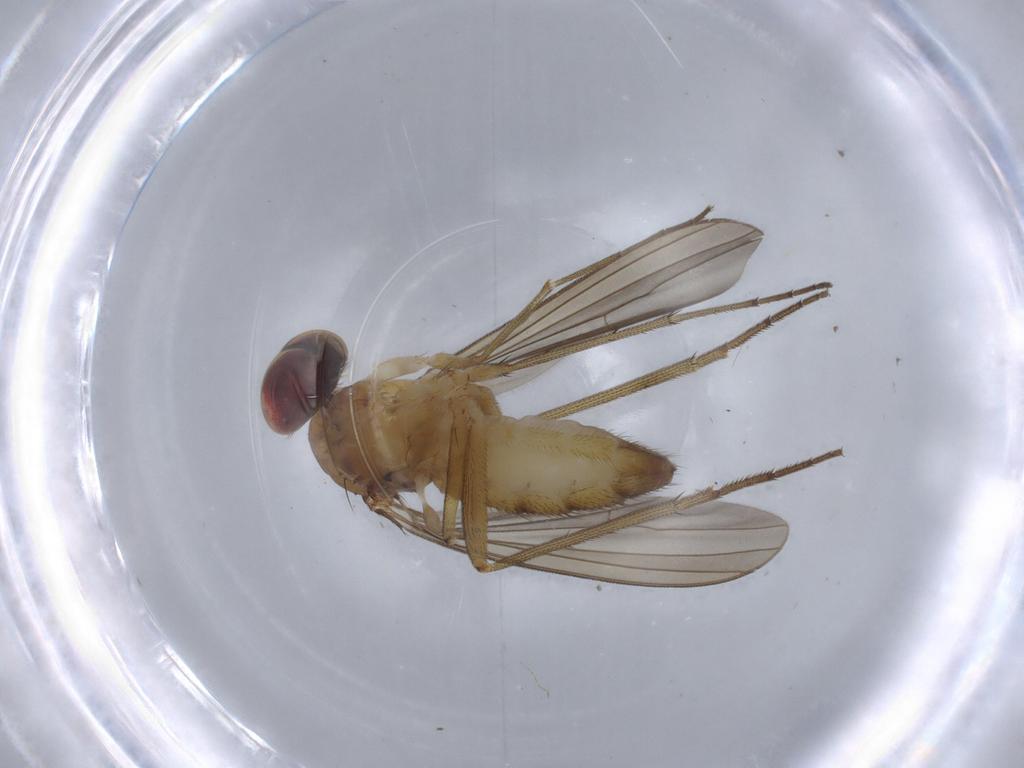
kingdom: Animalia
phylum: Arthropoda
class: Insecta
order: Diptera
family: Dolichopodidae
